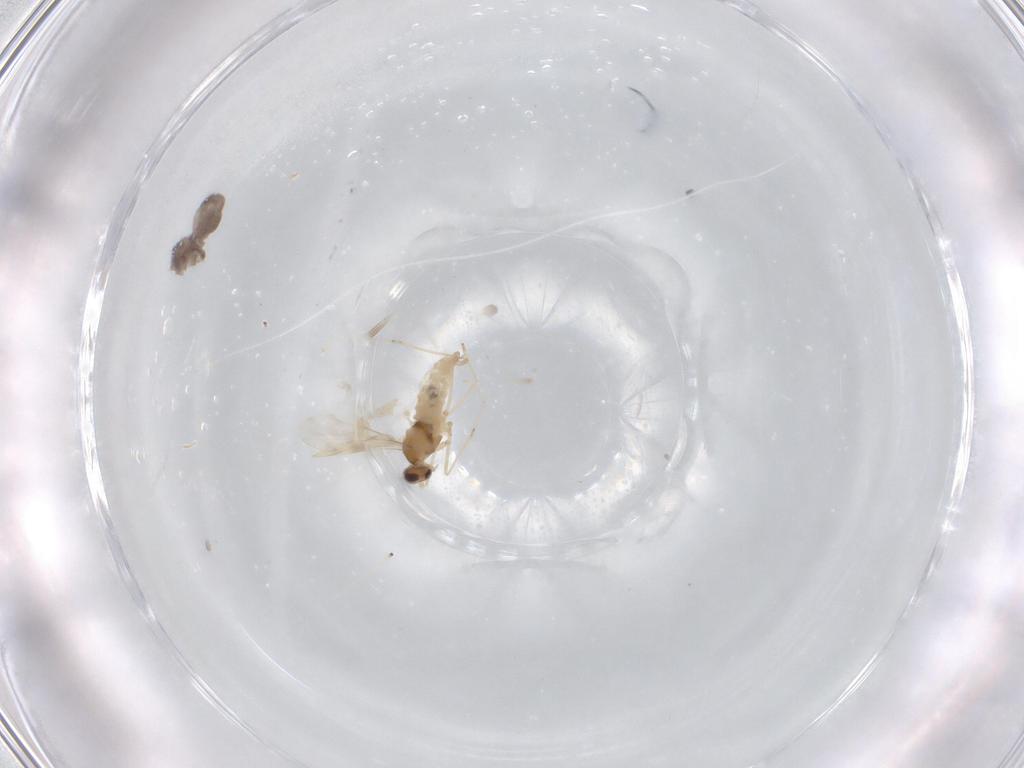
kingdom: Animalia
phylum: Arthropoda
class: Insecta
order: Diptera
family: Cecidomyiidae
